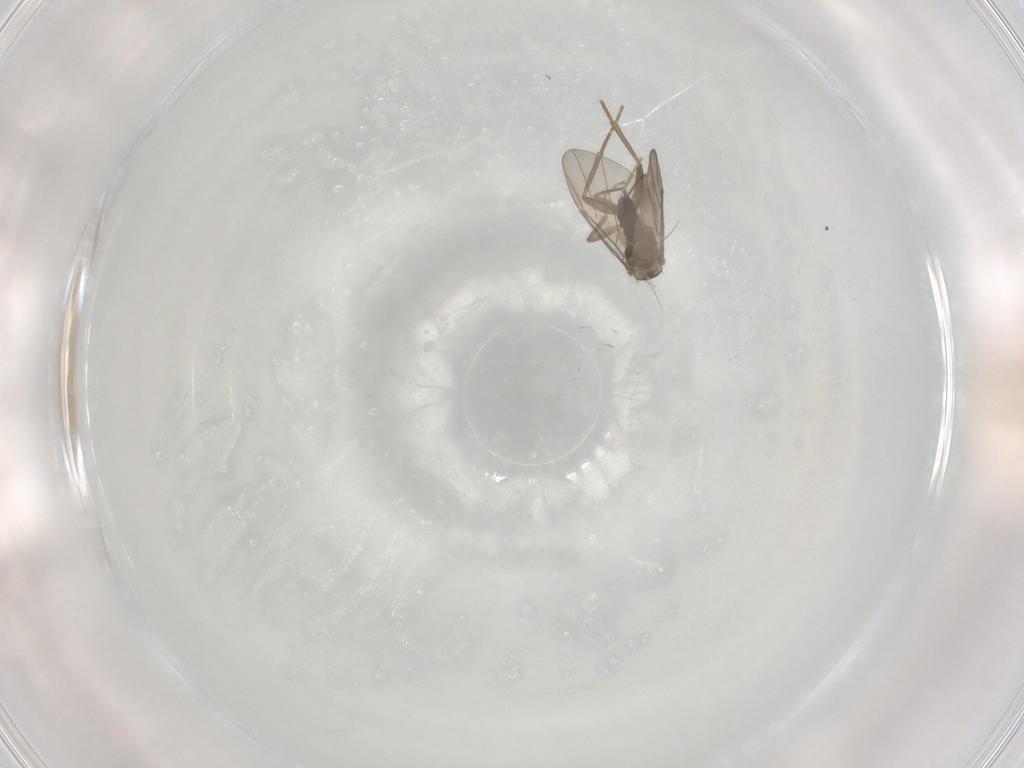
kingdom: Animalia
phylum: Arthropoda
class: Insecta
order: Diptera
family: Phoridae
